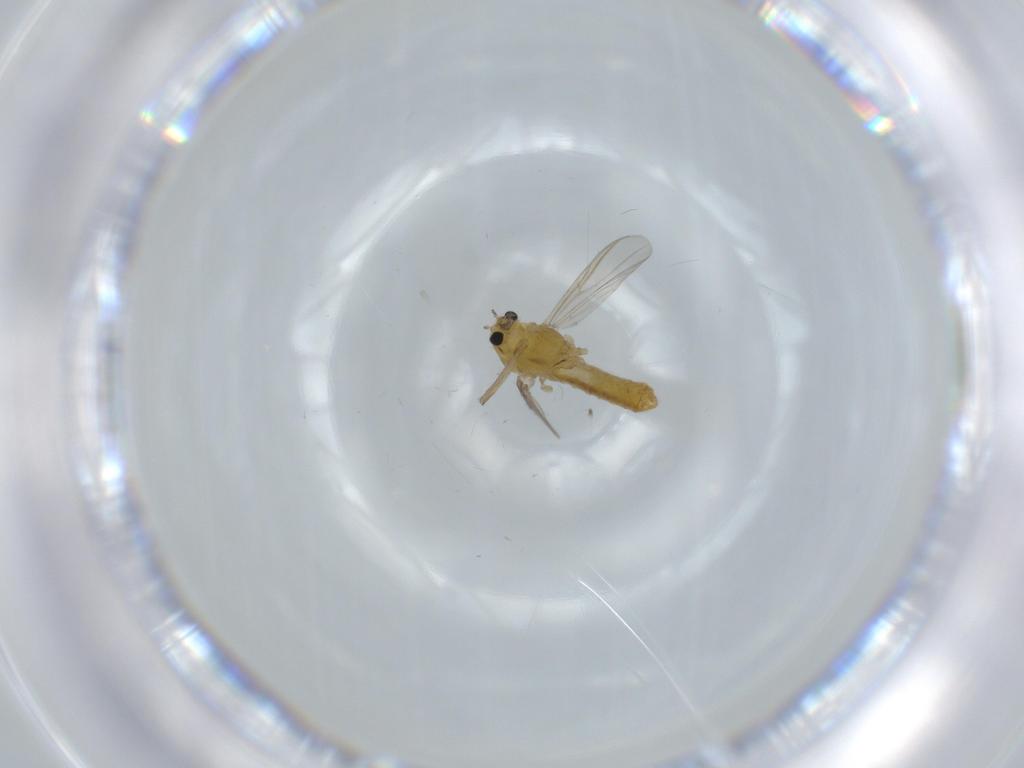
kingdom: Animalia
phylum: Arthropoda
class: Insecta
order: Diptera
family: Chironomidae
